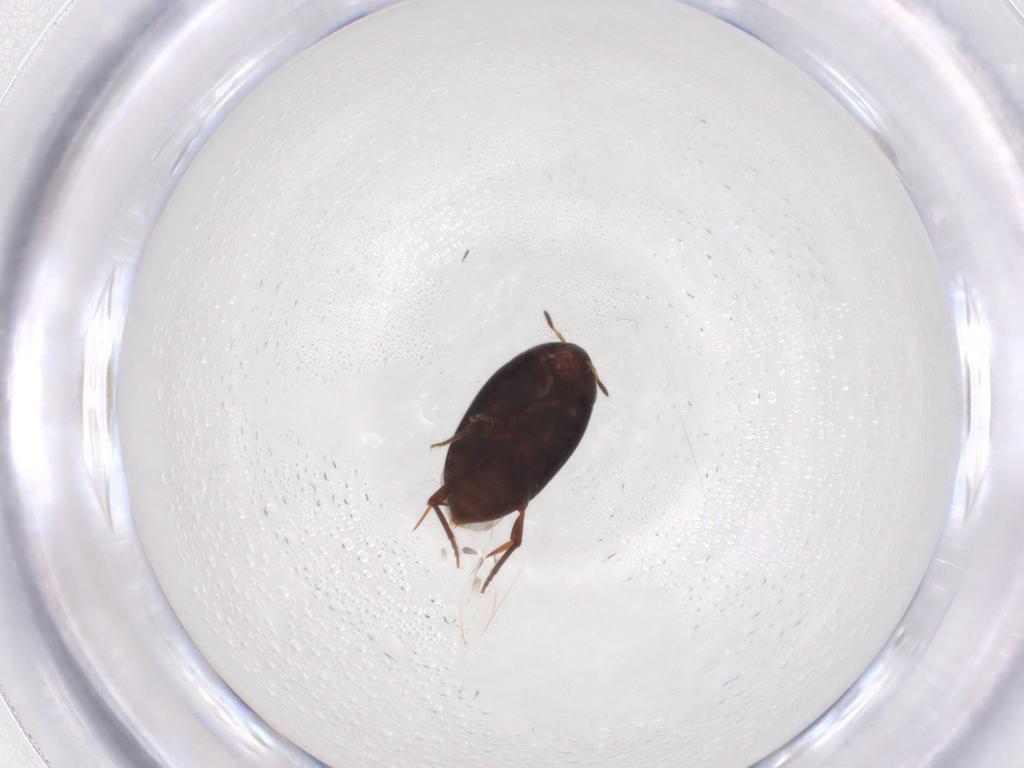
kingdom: Animalia
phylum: Arthropoda
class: Insecta
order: Coleoptera
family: Melandryidae
